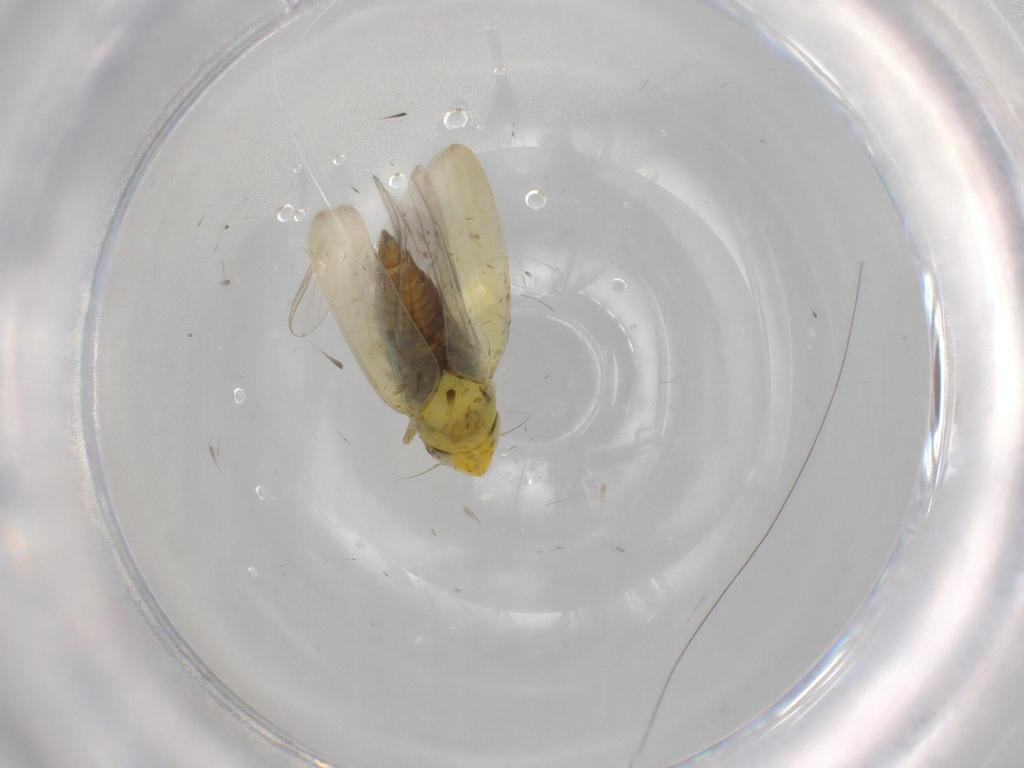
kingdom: Animalia
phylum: Arthropoda
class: Insecta
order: Hemiptera
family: Cicadellidae
